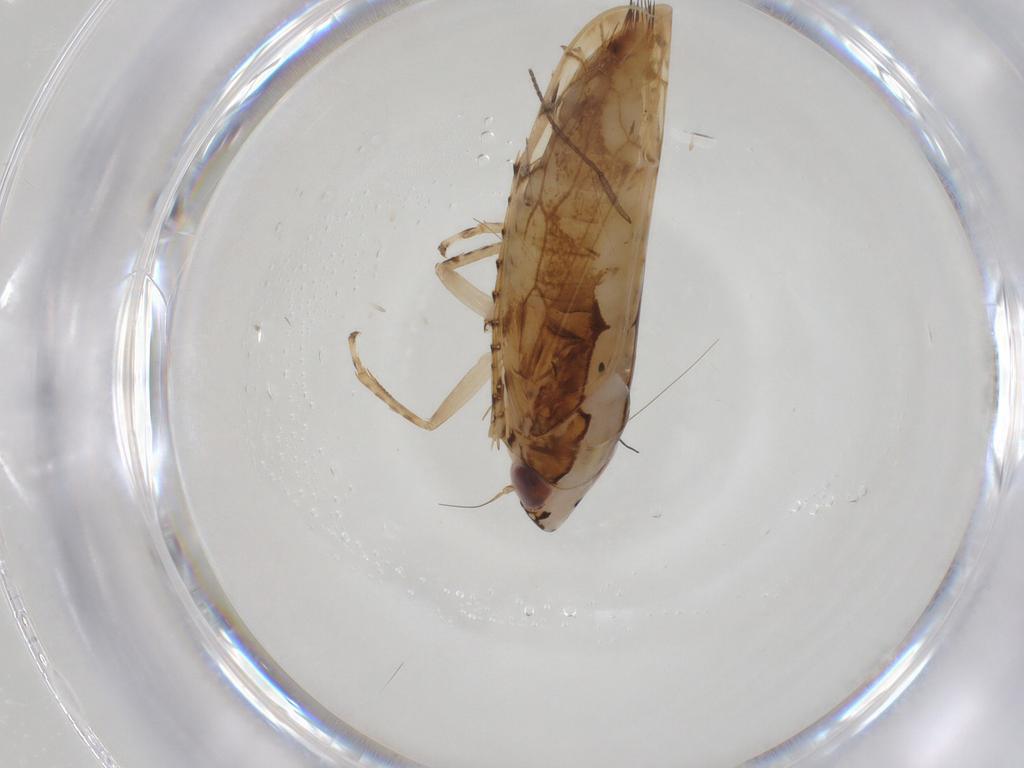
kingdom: Animalia
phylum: Arthropoda
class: Insecta
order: Hemiptera
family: Cicadellidae
